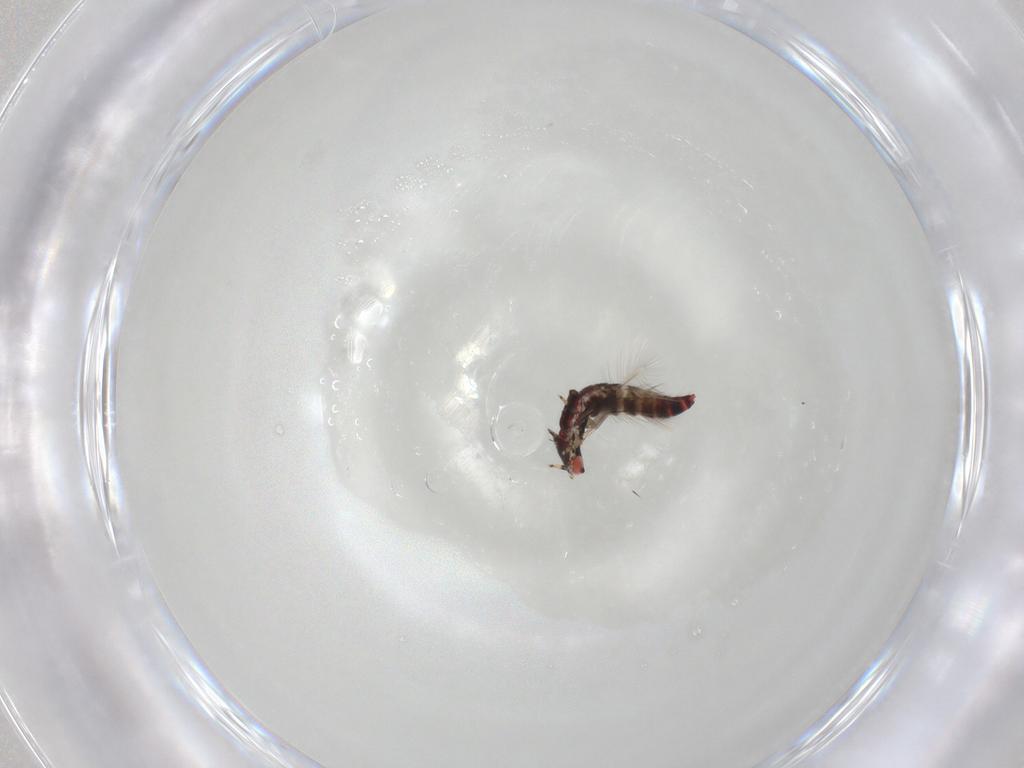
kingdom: Animalia
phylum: Arthropoda
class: Insecta
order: Thysanoptera
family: Phlaeothripidae
